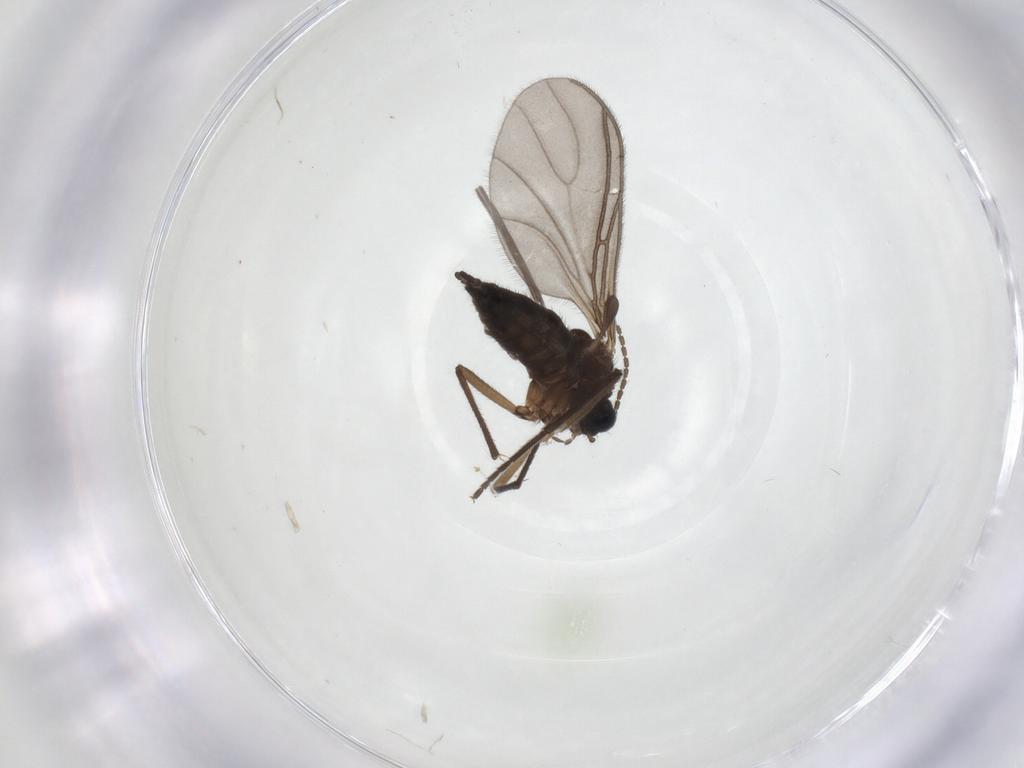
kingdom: Animalia
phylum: Arthropoda
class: Insecta
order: Diptera
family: Sciaridae
